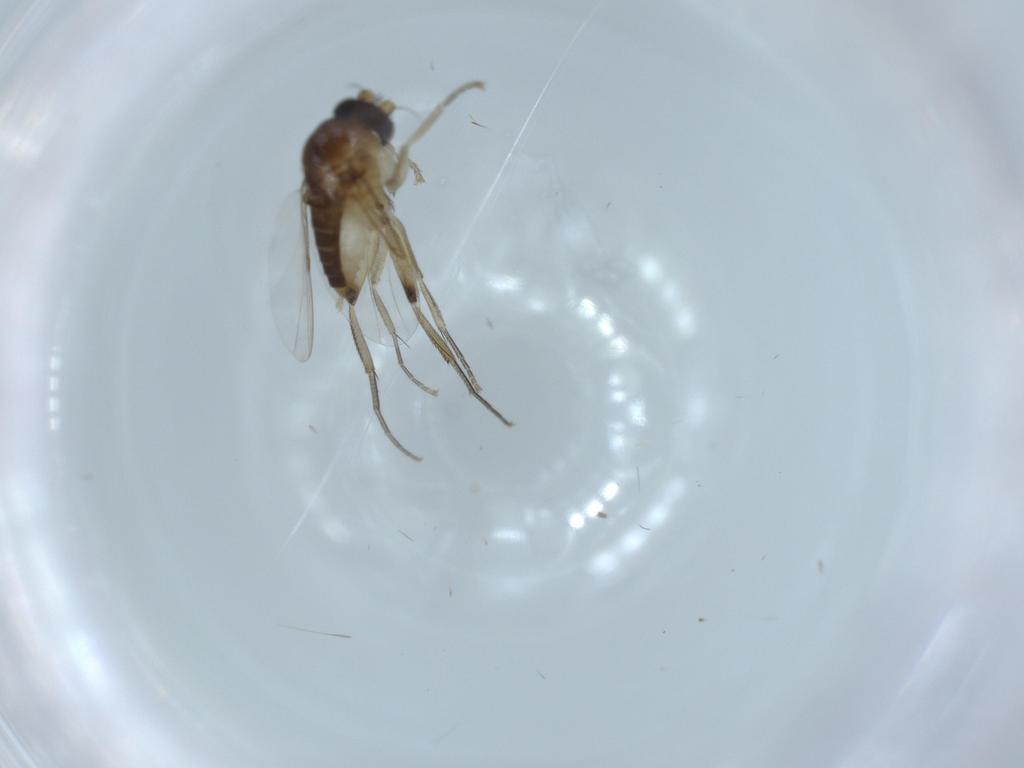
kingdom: Animalia
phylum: Arthropoda
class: Insecta
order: Diptera
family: Phoridae
